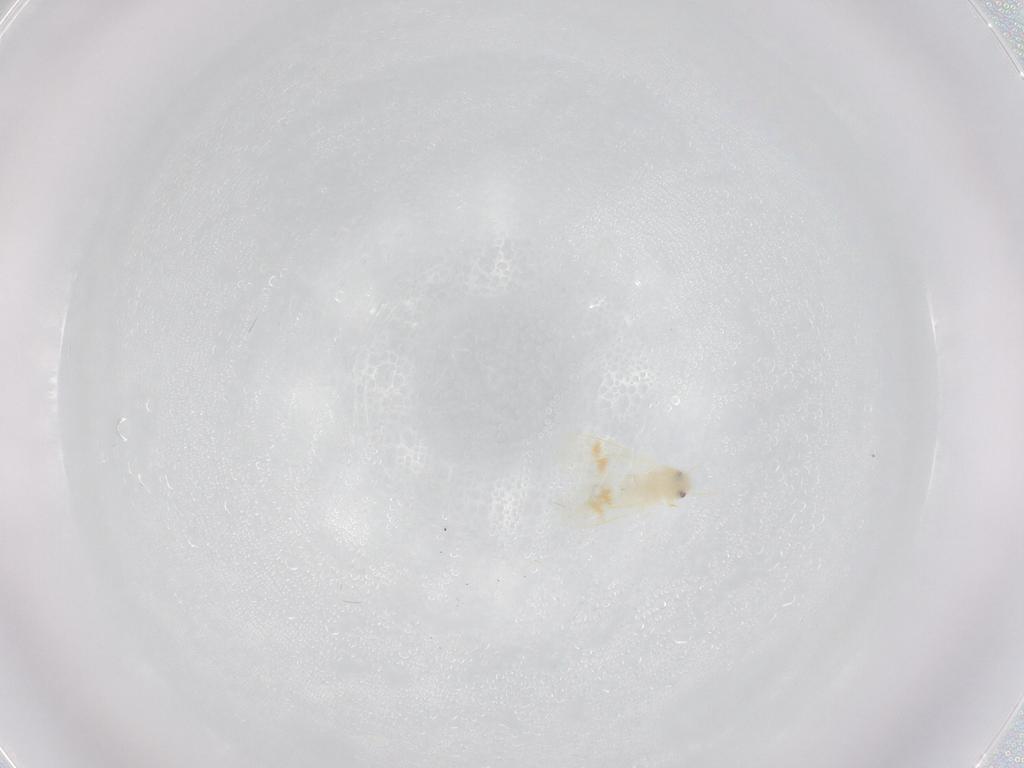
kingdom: Animalia
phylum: Arthropoda
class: Insecta
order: Hemiptera
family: Aleyrodidae
